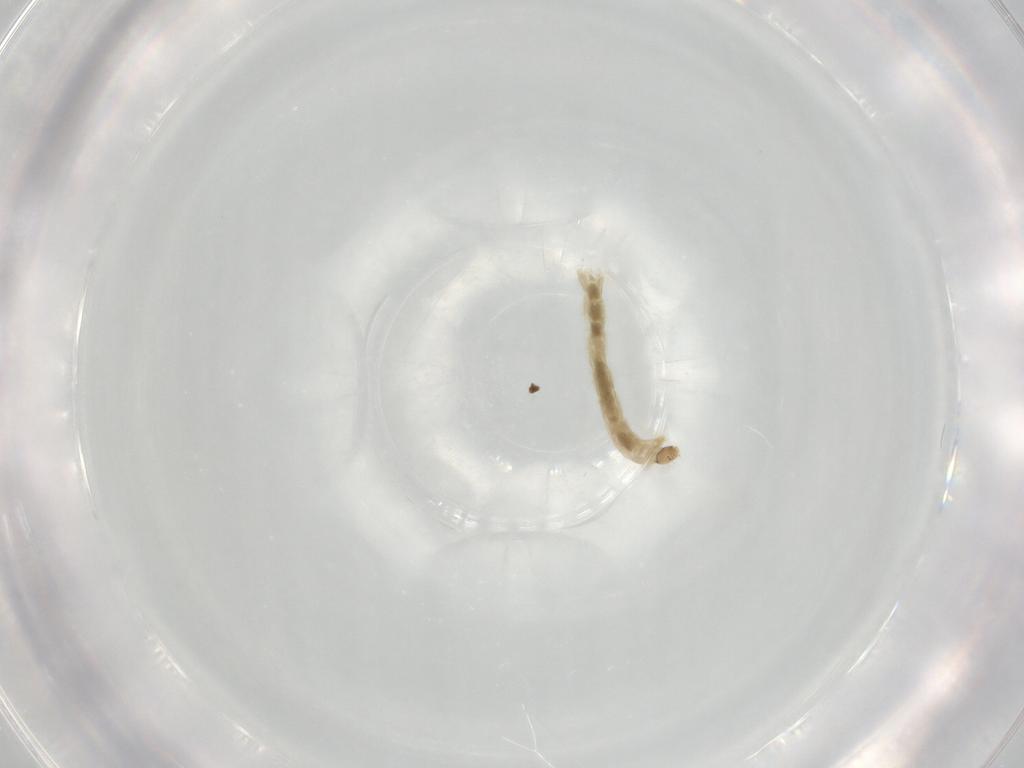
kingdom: Animalia
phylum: Arthropoda
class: Insecta
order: Diptera
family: Chironomidae
